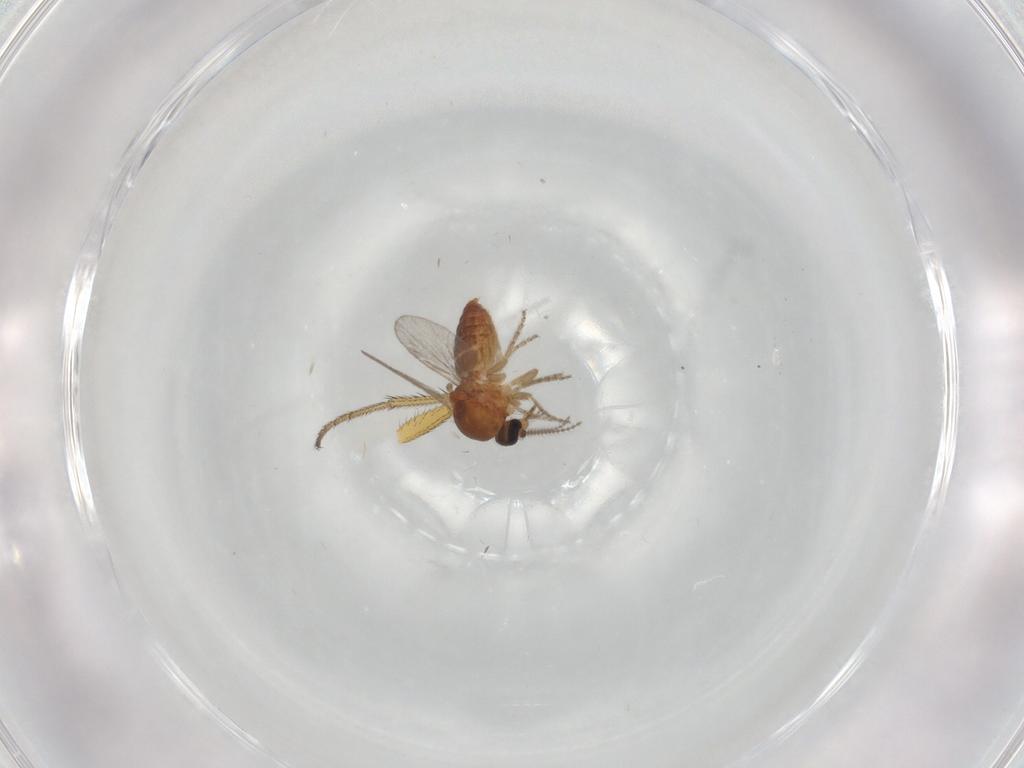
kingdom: Animalia
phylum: Arthropoda
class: Insecta
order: Diptera
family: Ceratopogonidae
